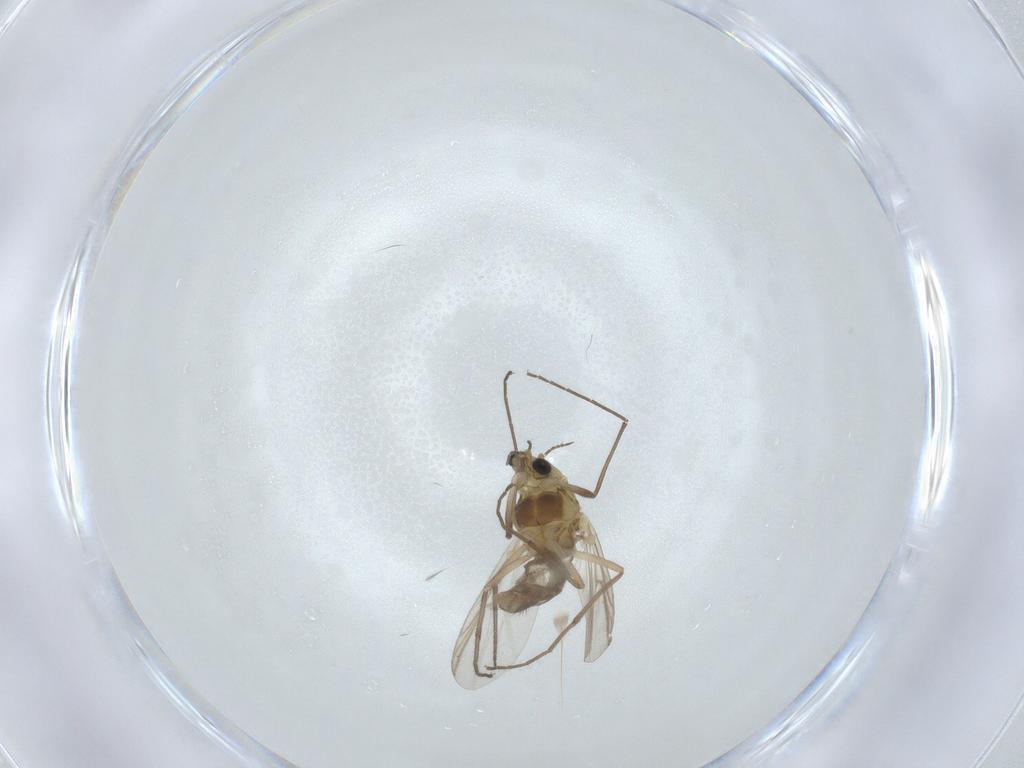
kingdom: Animalia
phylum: Arthropoda
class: Insecta
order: Diptera
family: Chironomidae
